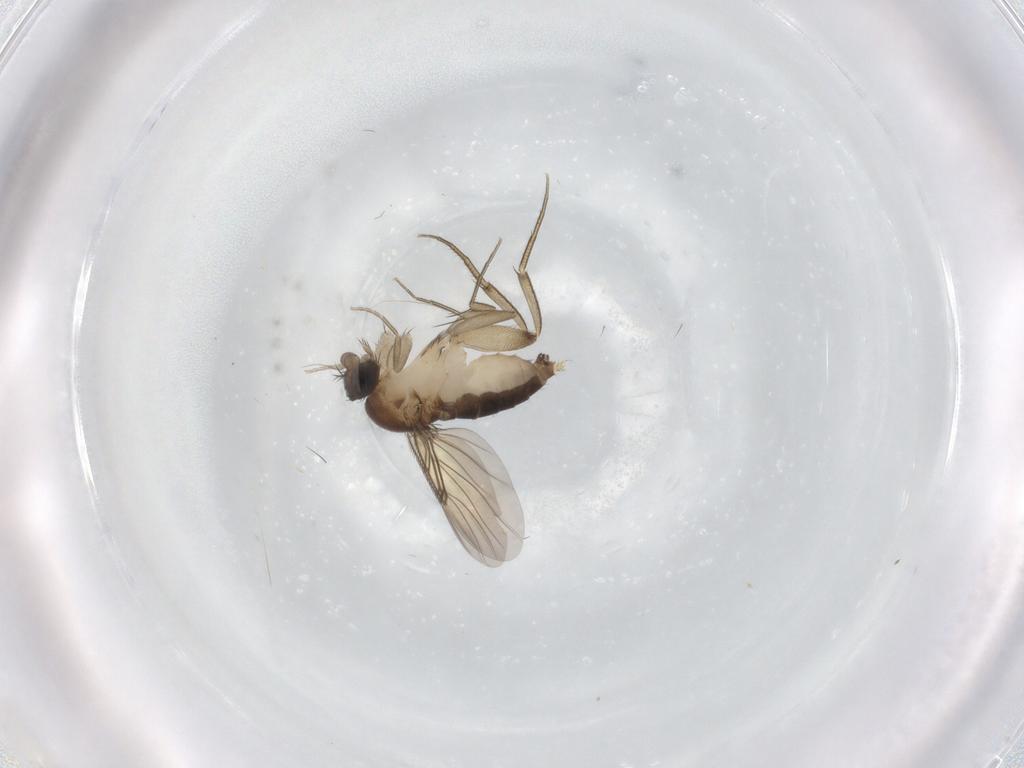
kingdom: Animalia
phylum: Arthropoda
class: Insecta
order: Diptera
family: Phoridae
